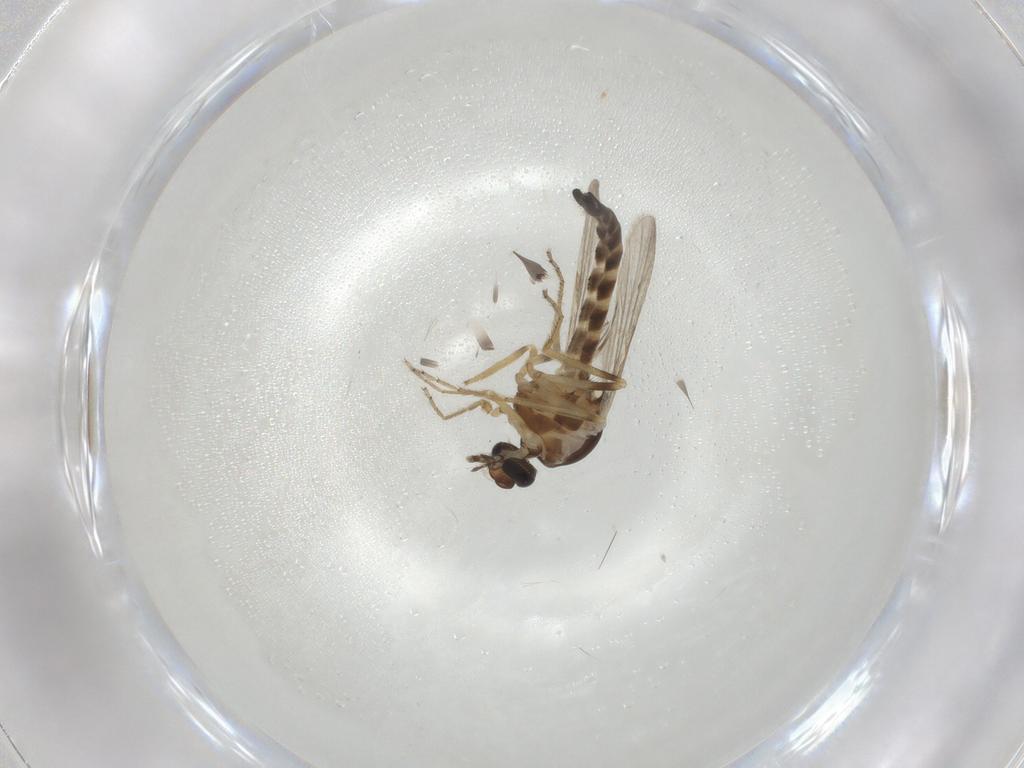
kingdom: Animalia
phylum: Arthropoda
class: Insecta
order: Diptera
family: Ceratopogonidae
